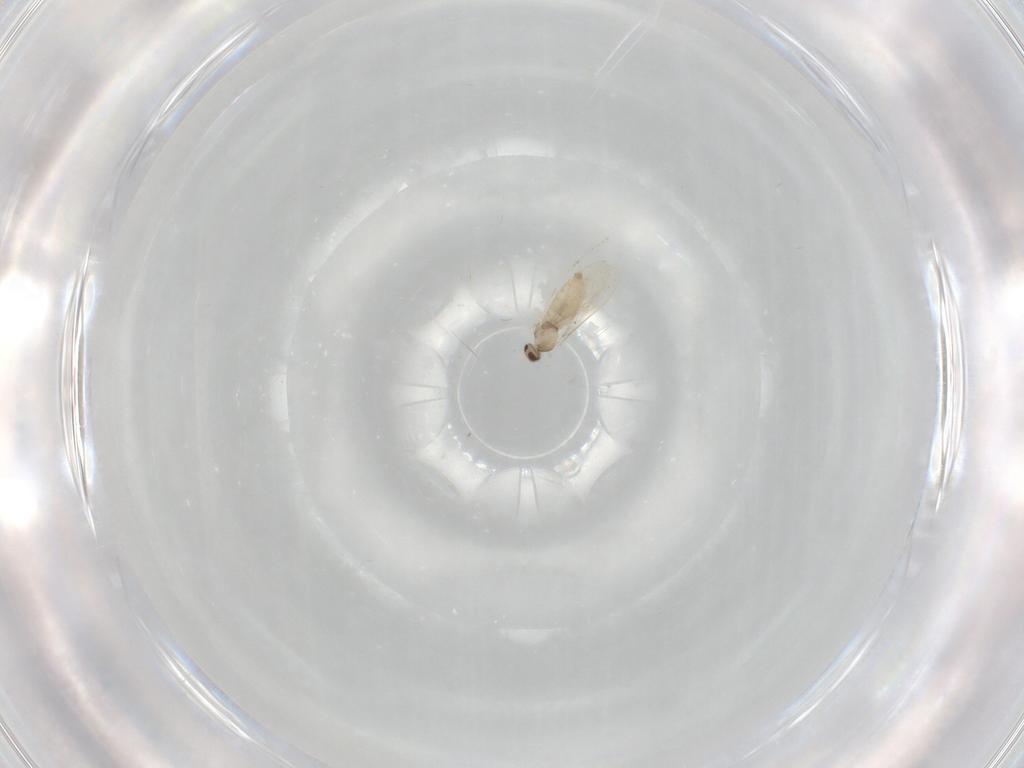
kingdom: Animalia
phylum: Arthropoda
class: Insecta
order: Diptera
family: Cecidomyiidae
